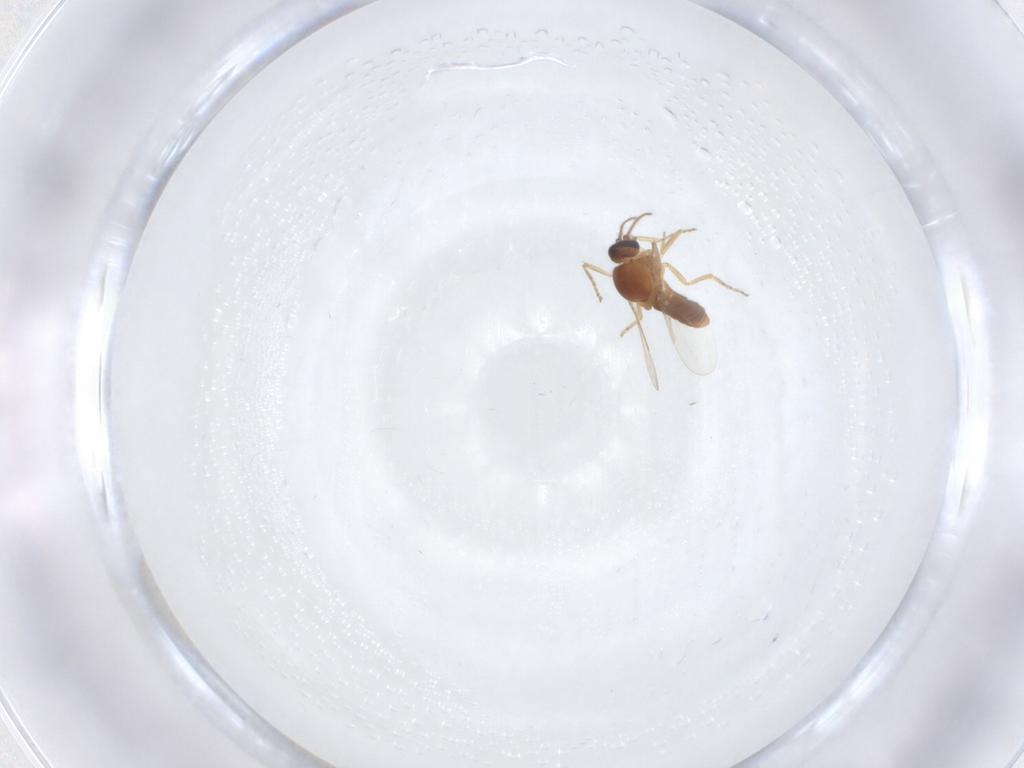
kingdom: Animalia
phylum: Arthropoda
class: Insecta
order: Diptera
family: Ceratopogonidae
